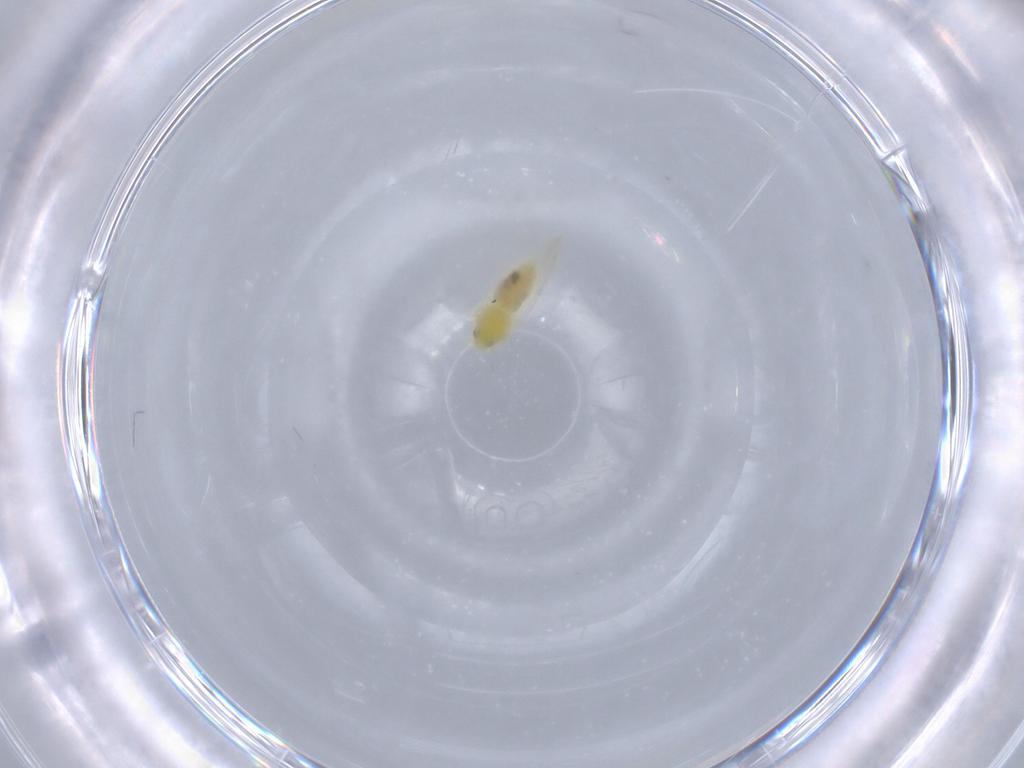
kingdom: Animalia
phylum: Arthropoda
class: Insecta
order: Hemiptera
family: Aleyrodidae
